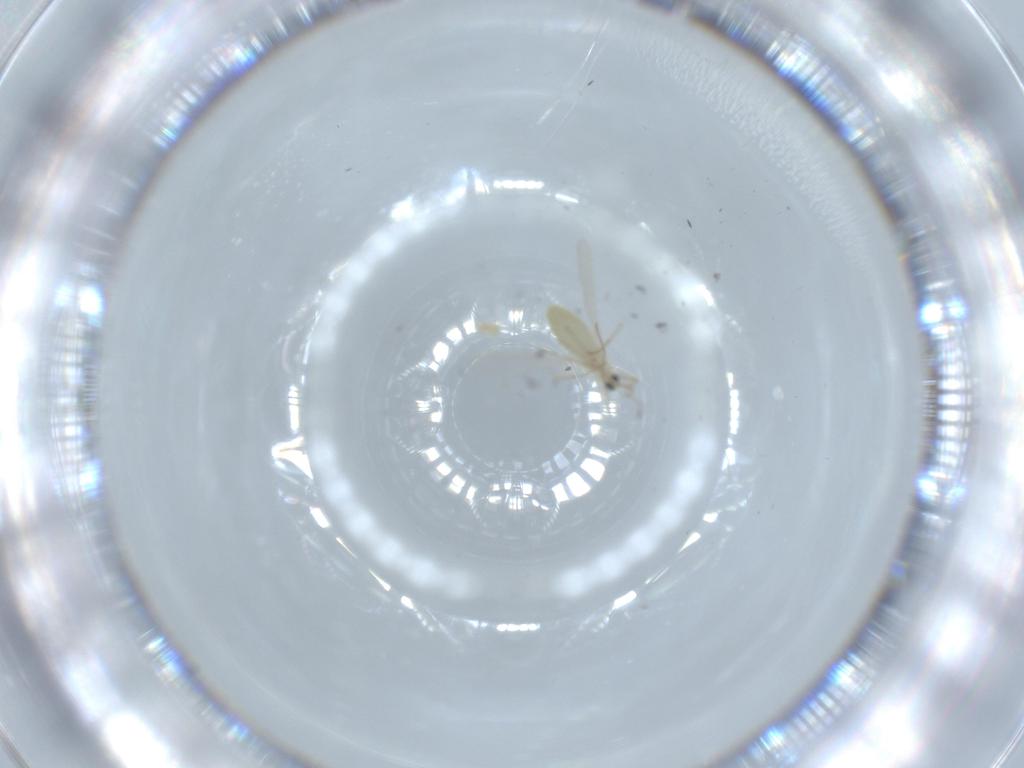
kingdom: Animalia
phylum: Arthropoda
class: Insecta
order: Diptera
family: Chironomidae
